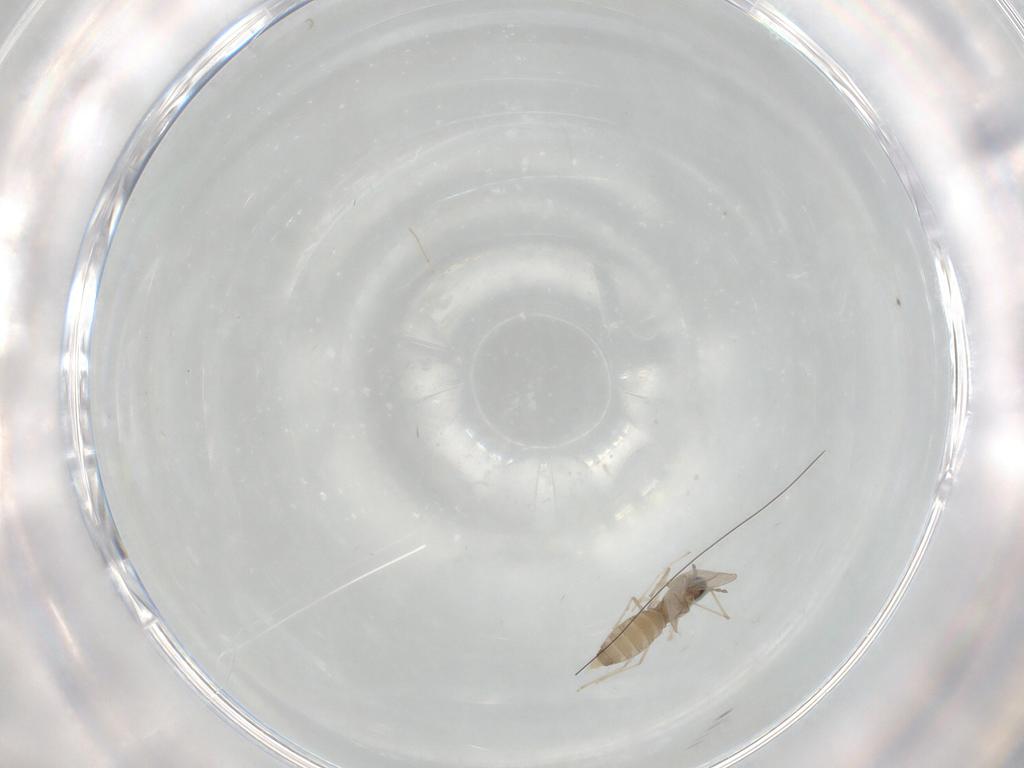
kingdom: Animalia
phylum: Arthropoda
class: Insecta
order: Diptera
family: Cecidomyiidae
